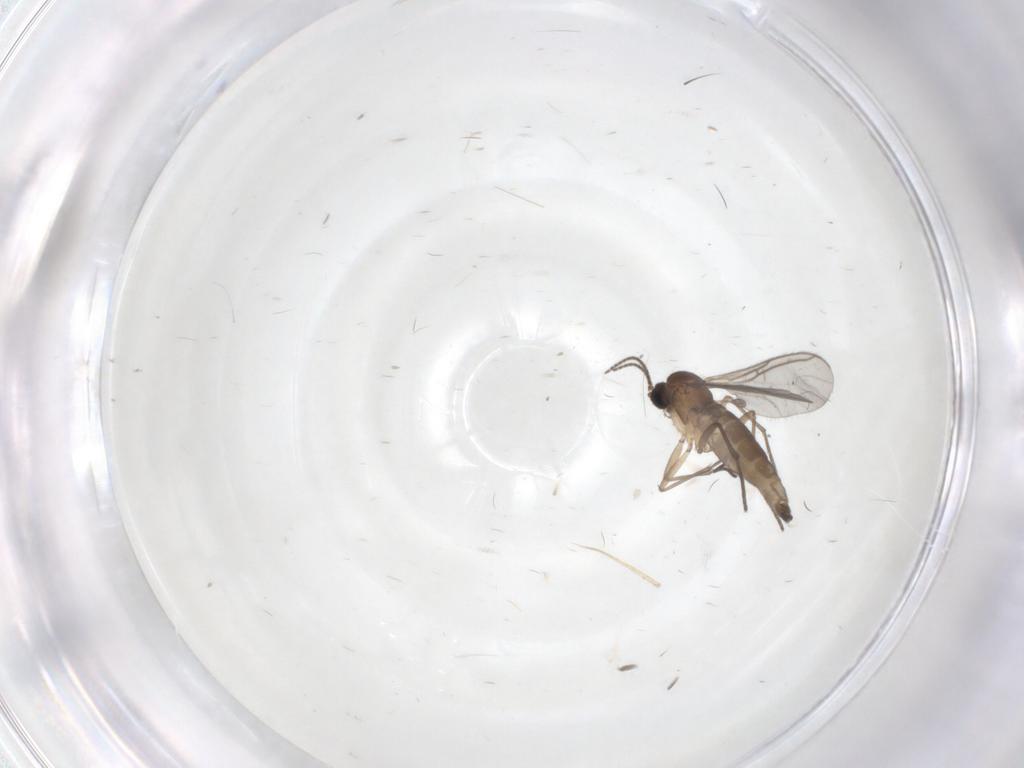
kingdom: Animalia
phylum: Arthropoda
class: Insecta
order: Diptera
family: Sciaridae
